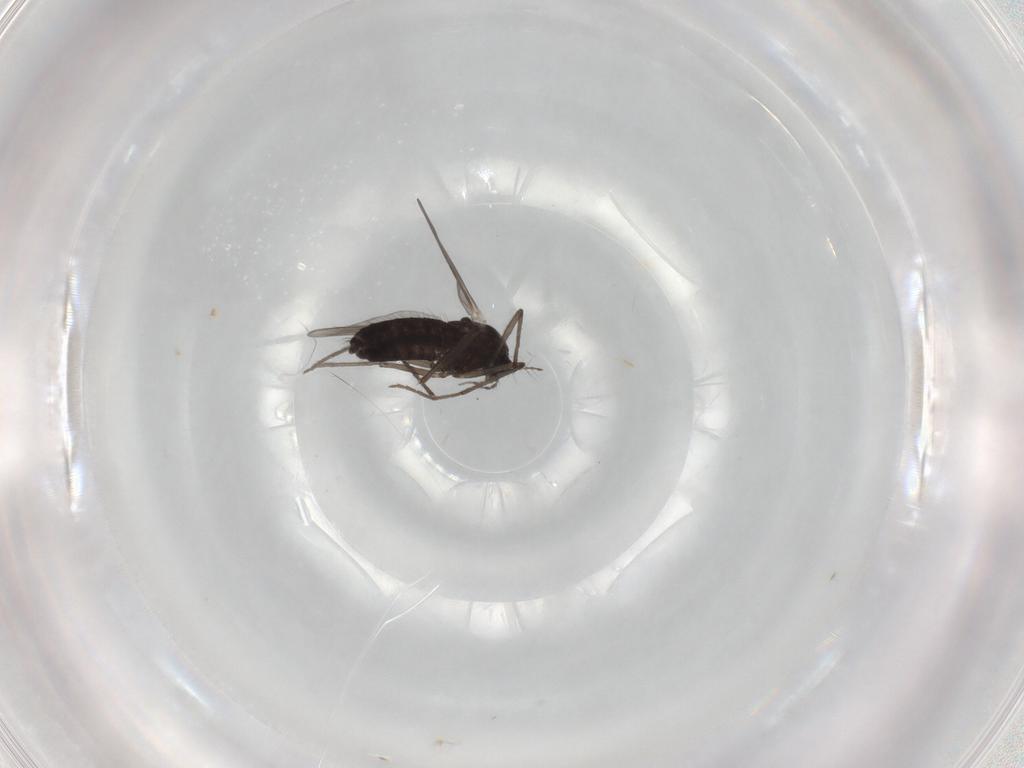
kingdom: Animalia
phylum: Arthropoda
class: Insecta
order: Diptera
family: Chironomidae
